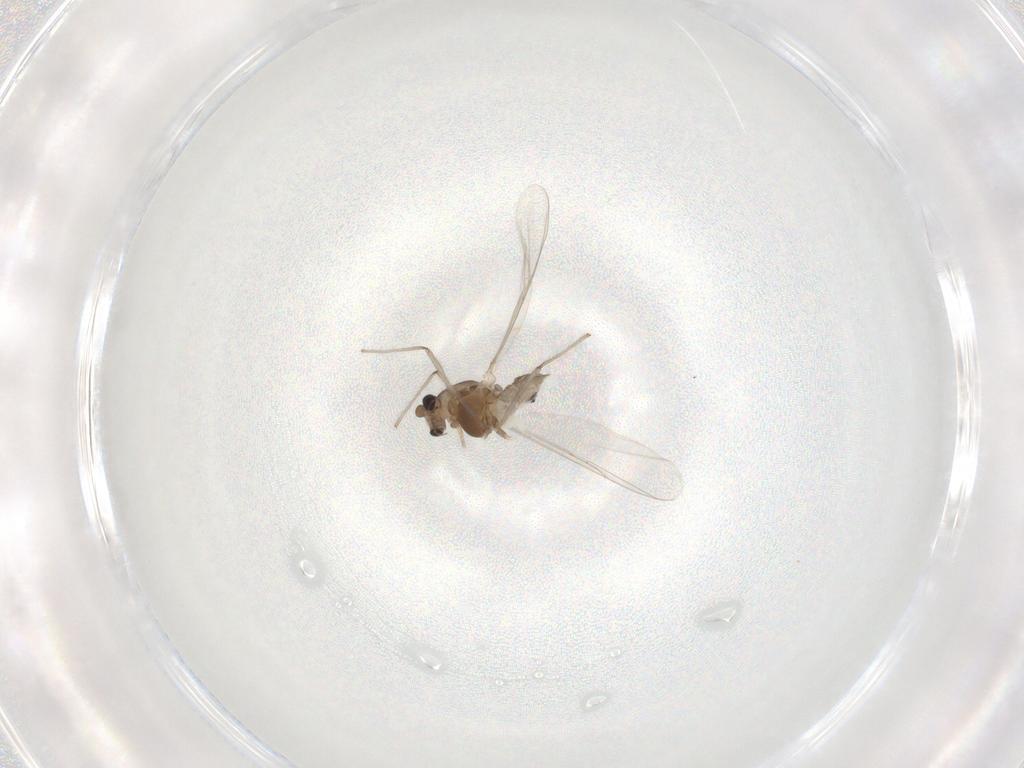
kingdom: Animalia
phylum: Arthropoda
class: Insecta
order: Diptera
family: Chironomidae
